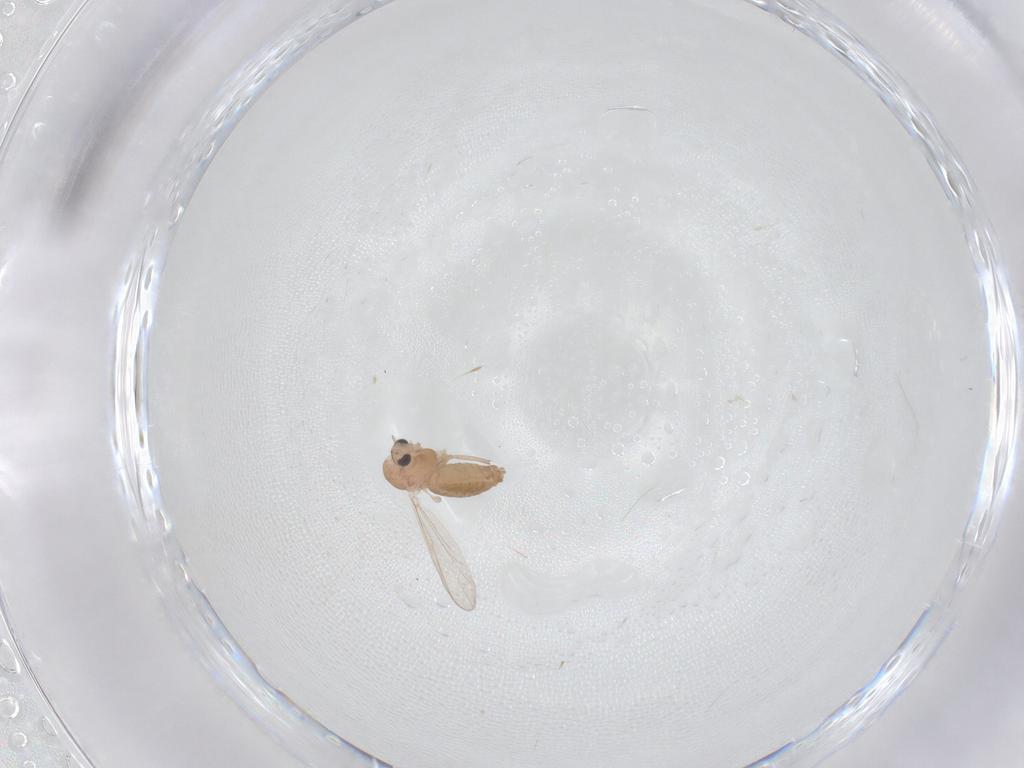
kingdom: Animalia
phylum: Arthropoda
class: Insecta
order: Diptera
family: Chironomidae
